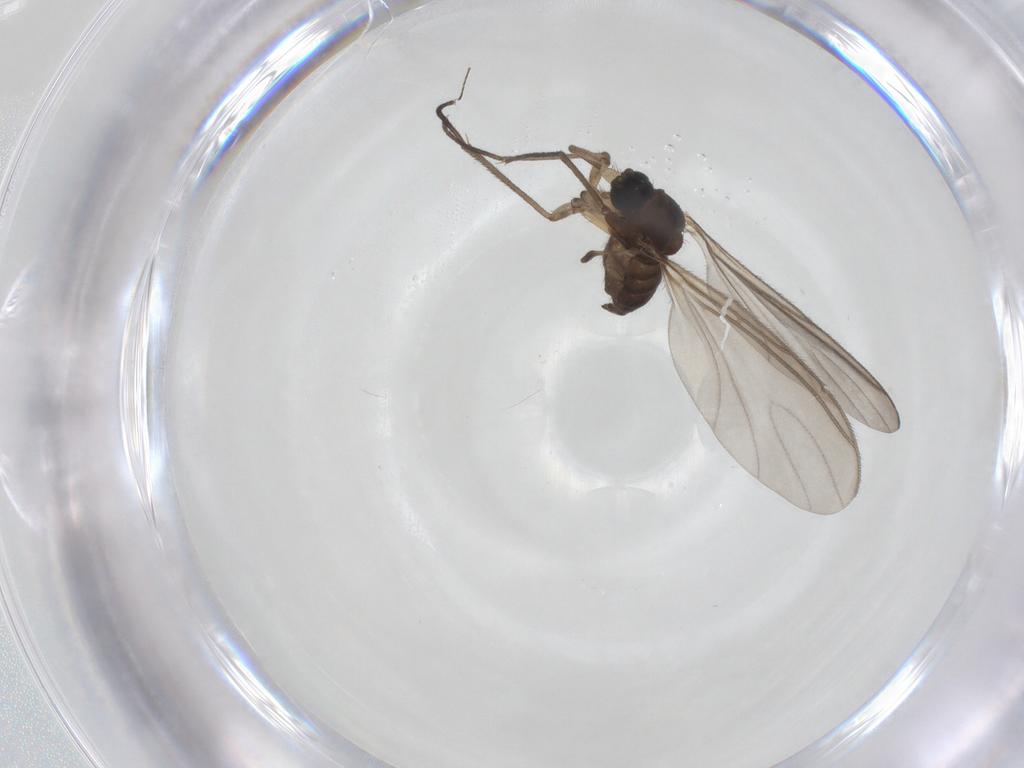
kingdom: Animalia
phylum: Arthropoda
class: Insecta
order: Diptera
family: Sciaridae
